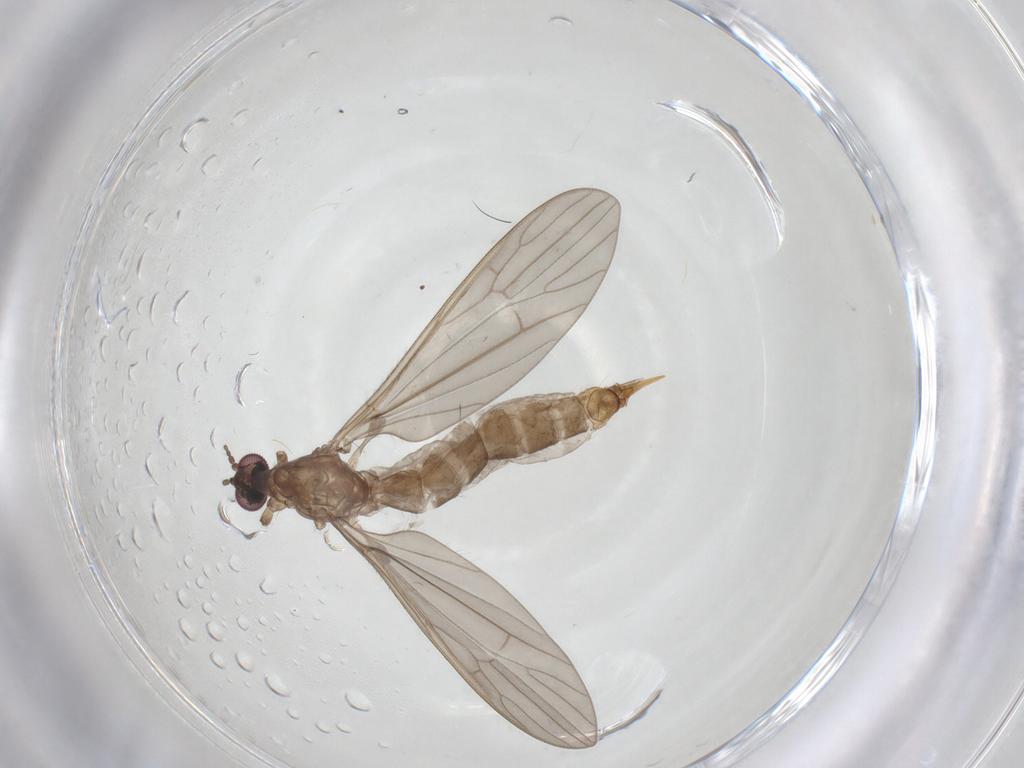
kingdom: Animalia
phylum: Arthropoda
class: Insecta
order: Diptera
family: Limoniidae
